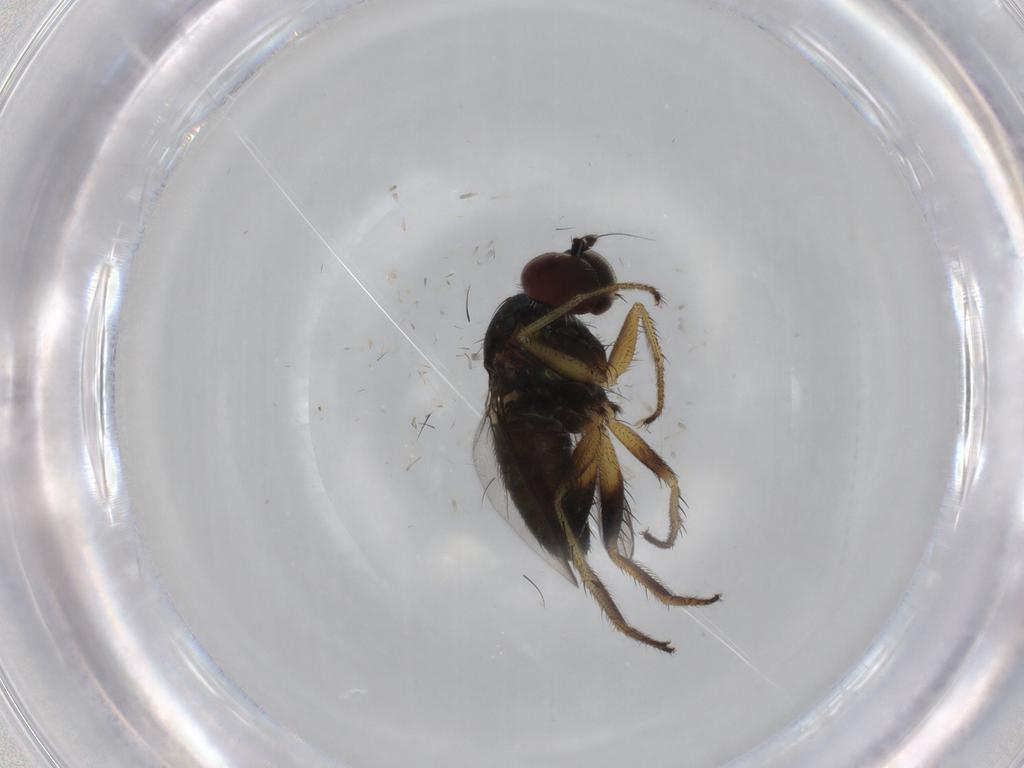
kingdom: Animalia
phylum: Arthropoda
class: Insecta
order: Diptera
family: Dolichopodidae
